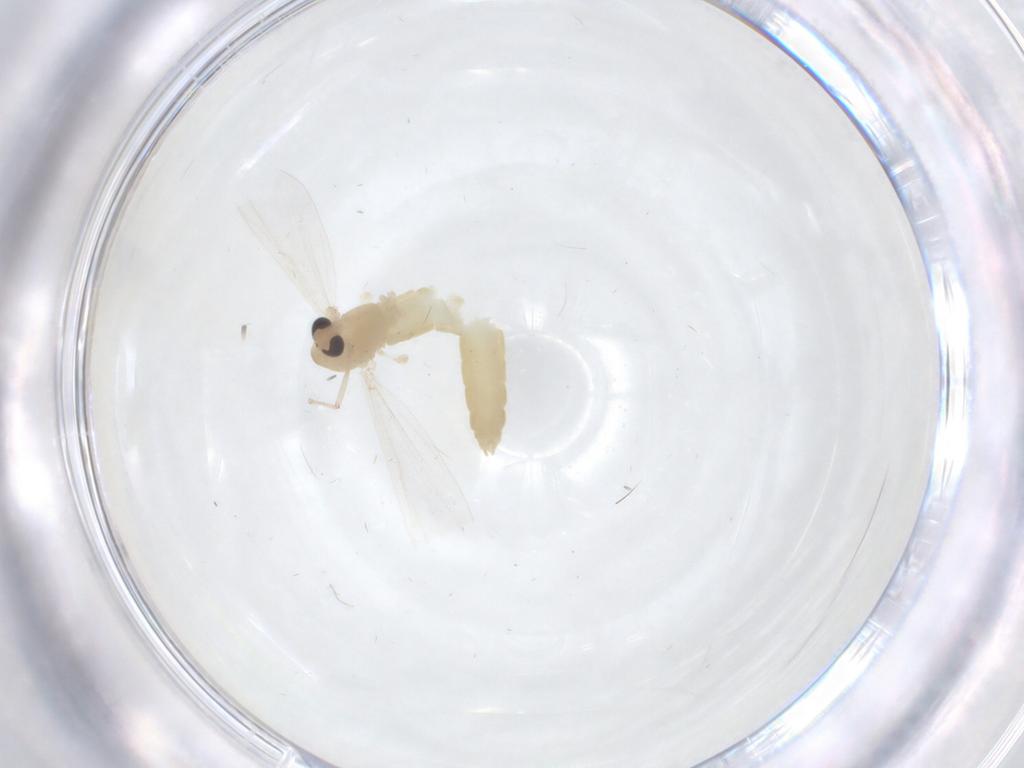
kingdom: Animalia
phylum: Arthropoda
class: Insecta
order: Diptera
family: Chironomidae
